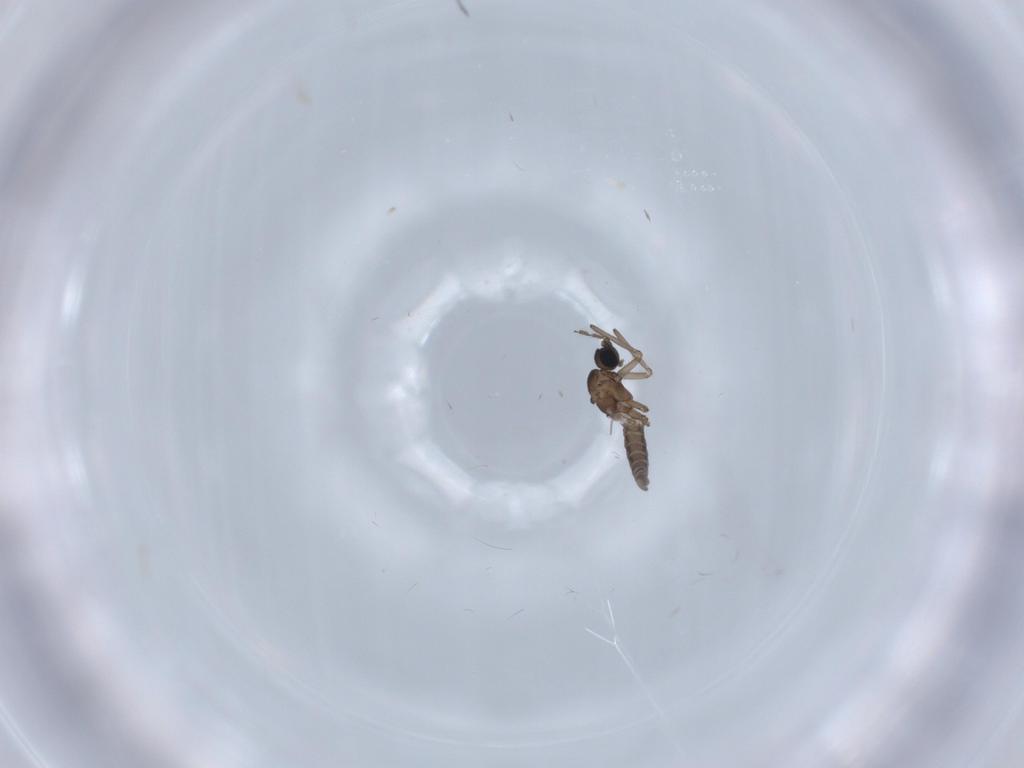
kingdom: Animalia
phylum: Arthropoda
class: Insecta
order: Diptera
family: Sciaridae
